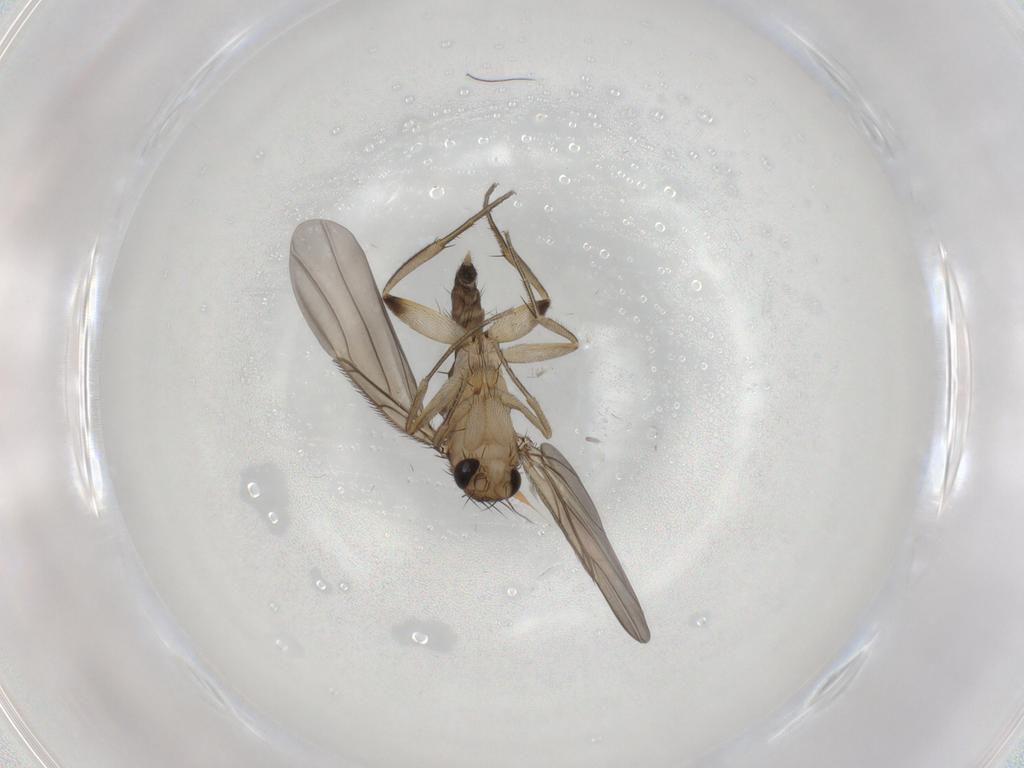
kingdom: Animalia
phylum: Arthropoda
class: Insecta
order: Diptera
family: Phoridae
